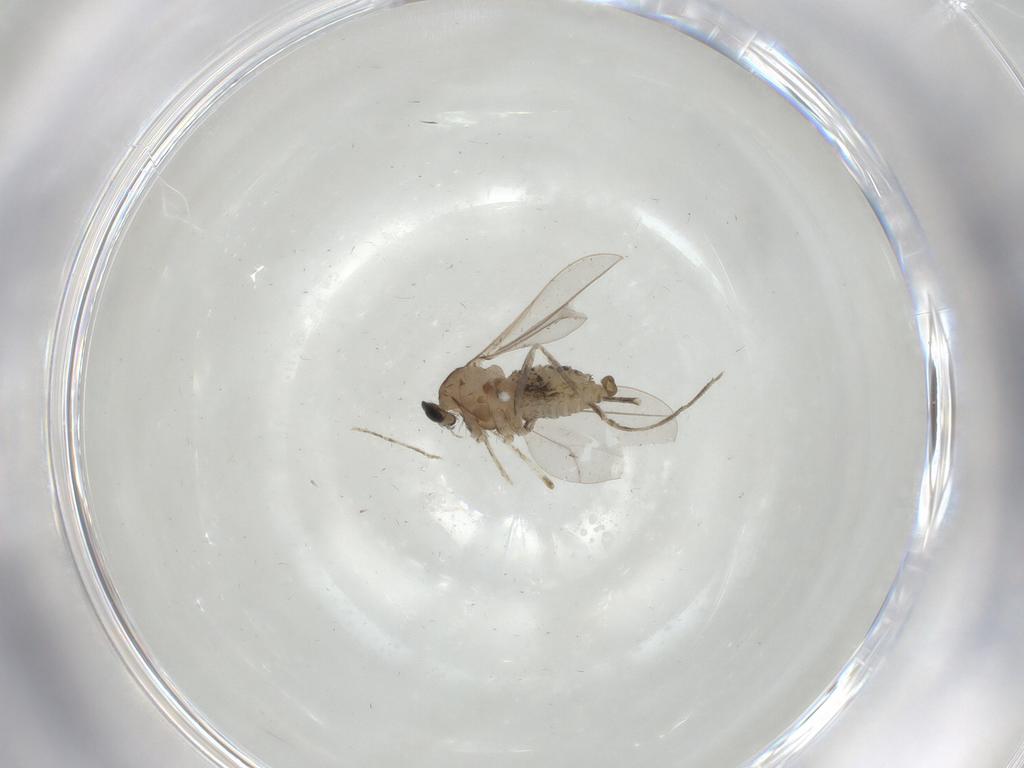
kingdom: Animalia
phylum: Arthropoda
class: Insecta
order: Diptera
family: Cecidomyiidae
